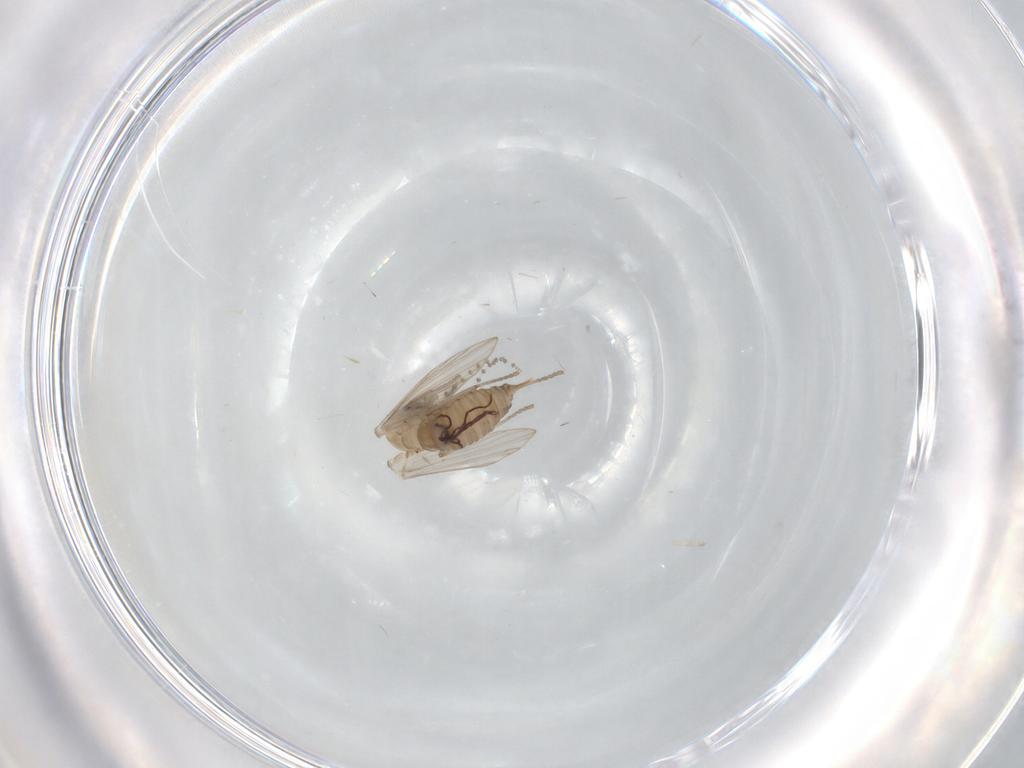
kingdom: Animalia
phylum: Arthropoda
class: Insecta
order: Diptera
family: Psychodidae
